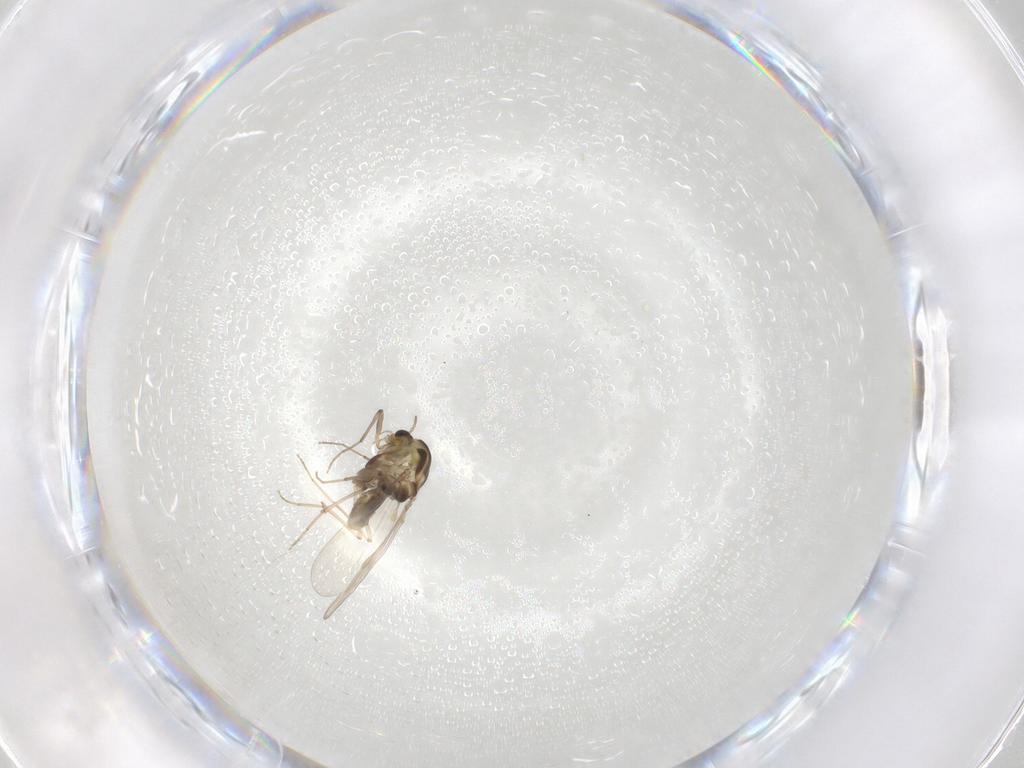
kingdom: Animalia
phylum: Arthropoda
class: Insecta
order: Diptera
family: Chironomidae
